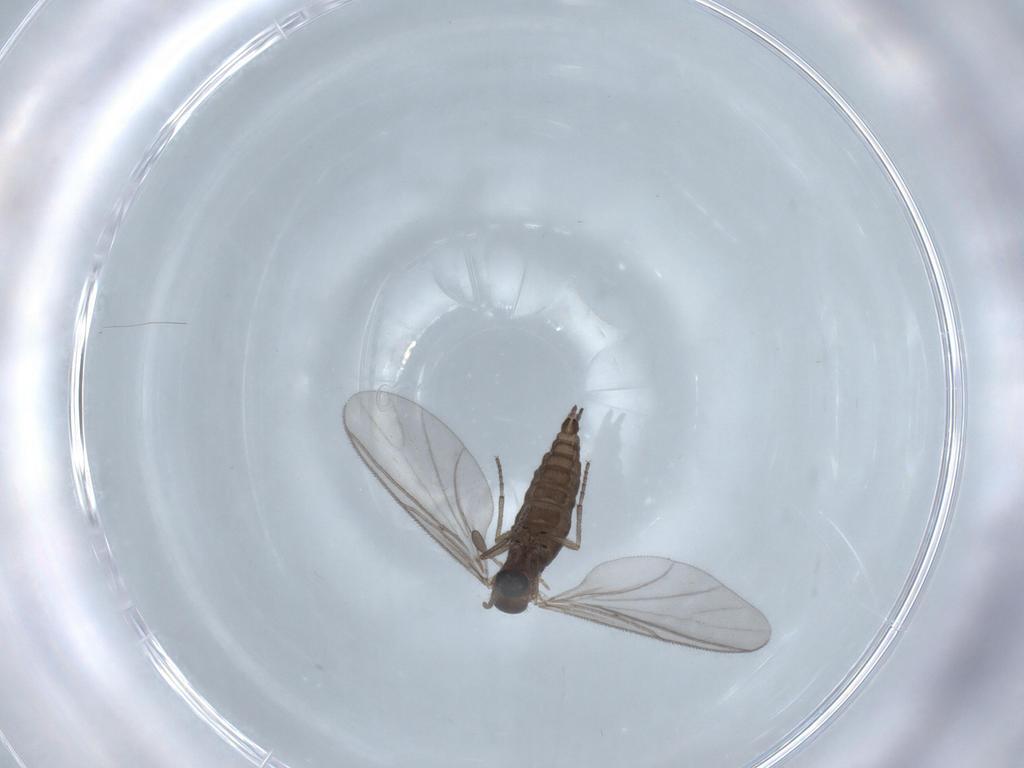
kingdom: Animalia
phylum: Arthropoda
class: Insecta
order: Diptera
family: Sciaridae
